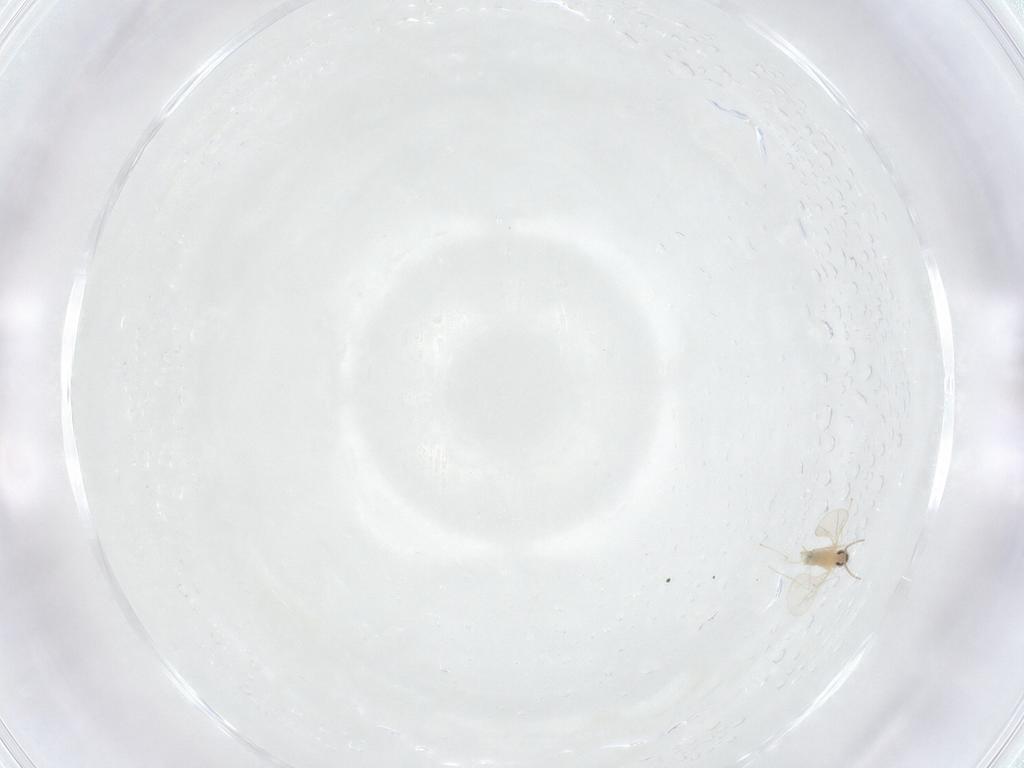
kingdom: Animalia
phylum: Arthropoda
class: Insecta
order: Diptera
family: Cecidomyiidae
